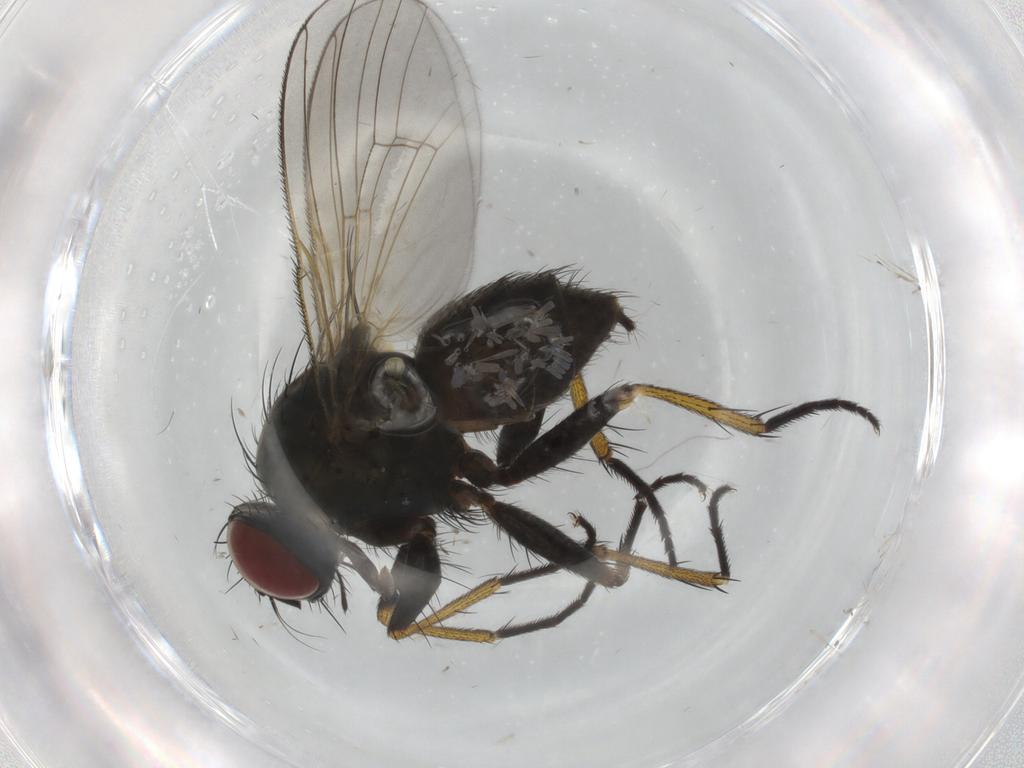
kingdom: Animalia
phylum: Arthropoda
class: Insecta
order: Diptera
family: Muscidae
